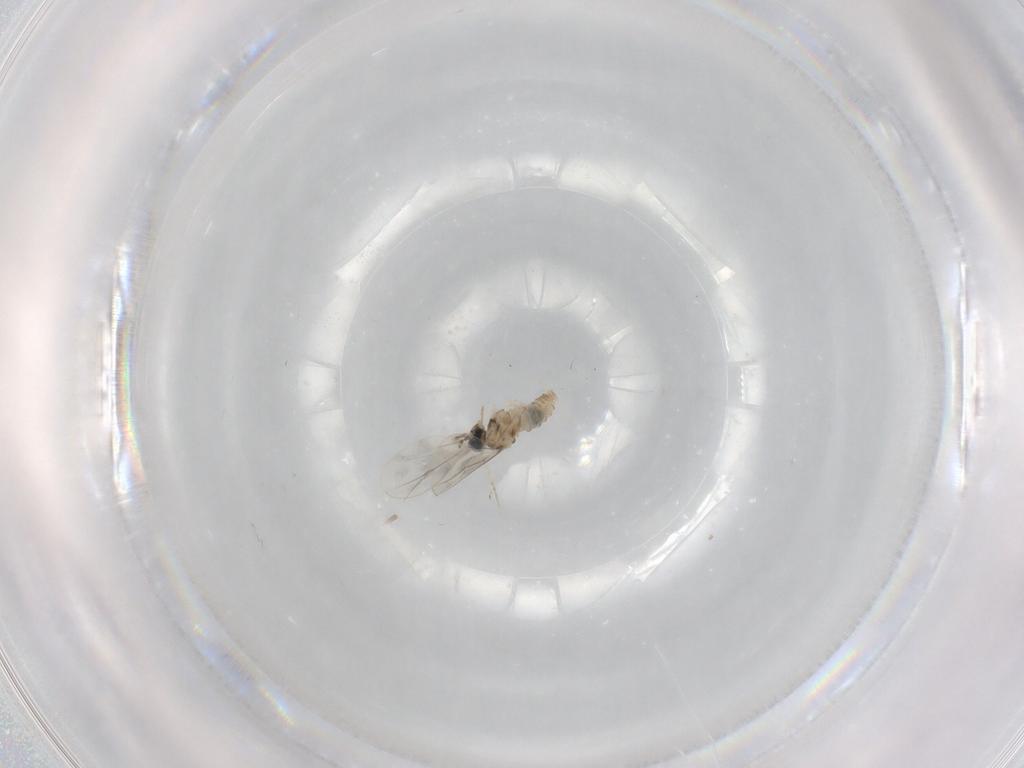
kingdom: Animalia
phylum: Arthropoda
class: Insecta
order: Diptera
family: Cecidomyiidae
